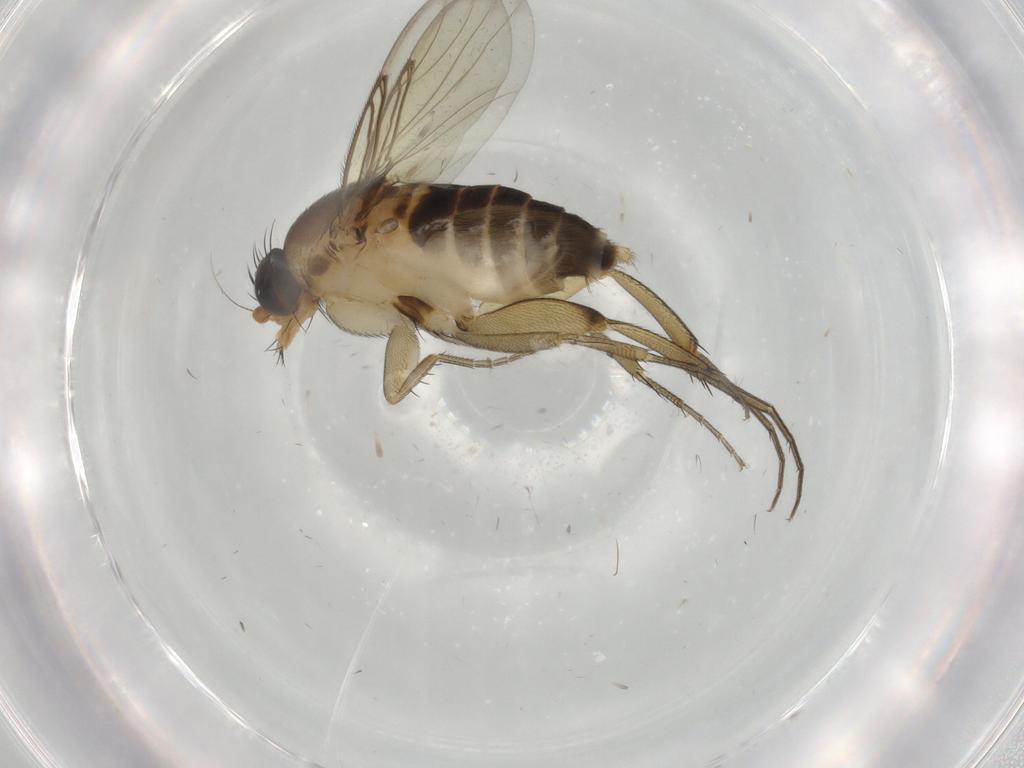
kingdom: Animalia
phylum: Arthropoda
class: Insecta
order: Diptera
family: Phoridae
